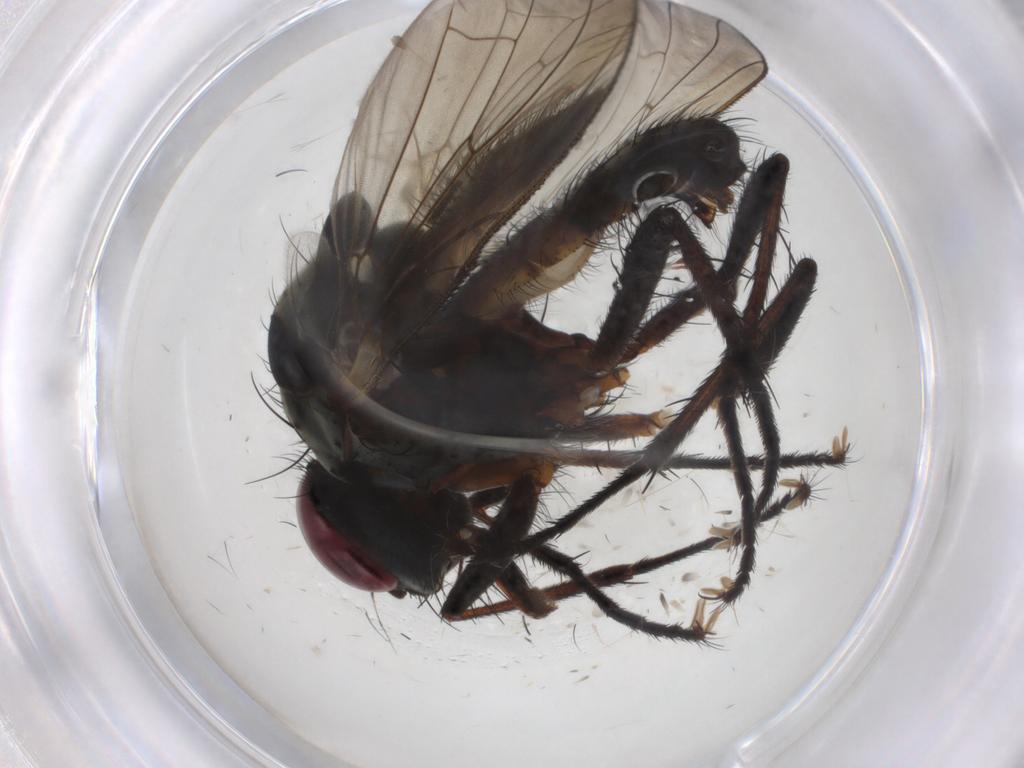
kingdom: Animalia
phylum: Arthropoda
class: Insecta
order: Diptera
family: Anthomyiidae
